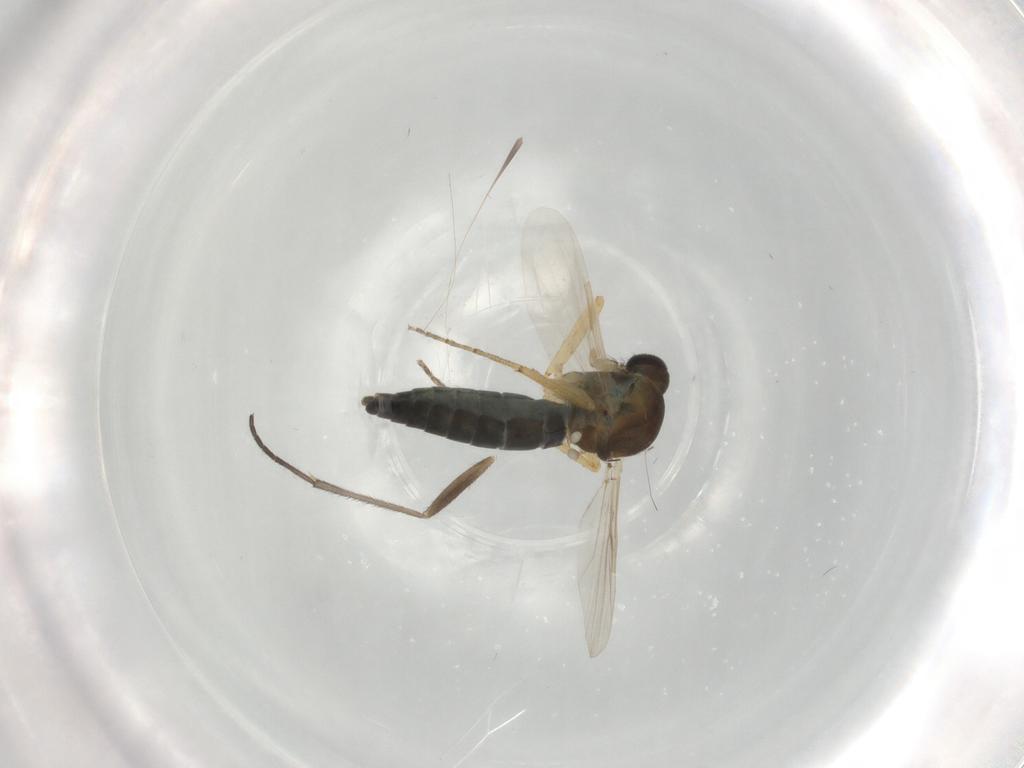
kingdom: Animalia
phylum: Arthropoda
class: Insecta
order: Diptera
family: Ceratopogonidae
